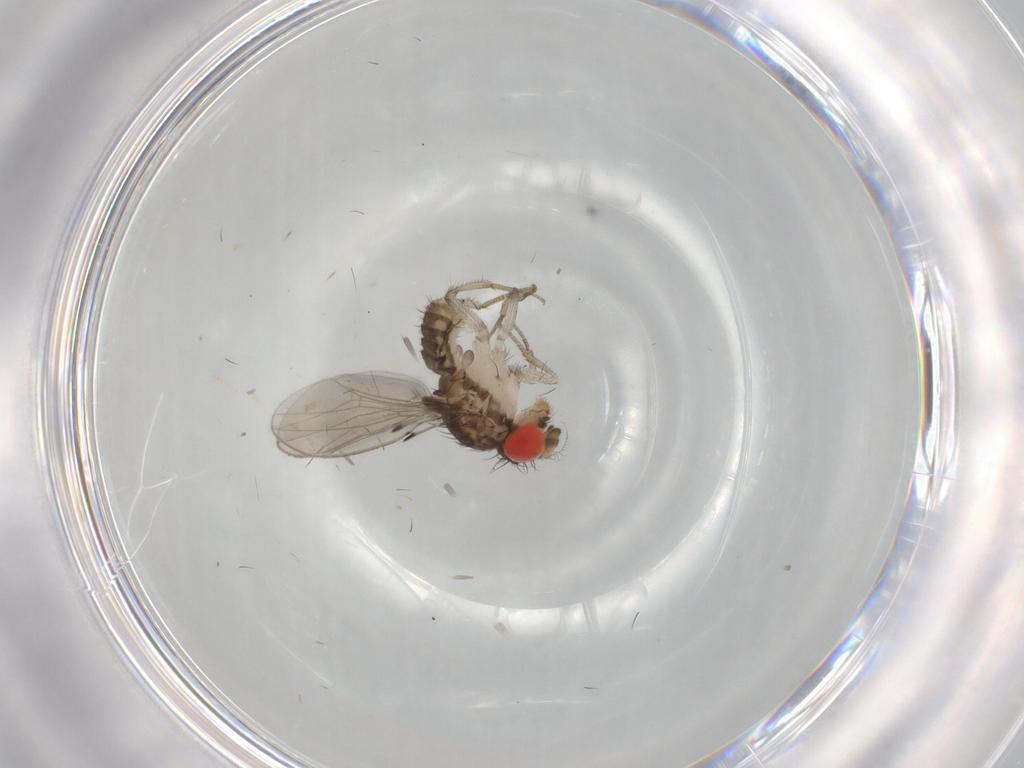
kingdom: Animalia
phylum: Arthropoda
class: Insecta
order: Diptera
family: Drosophilidae
